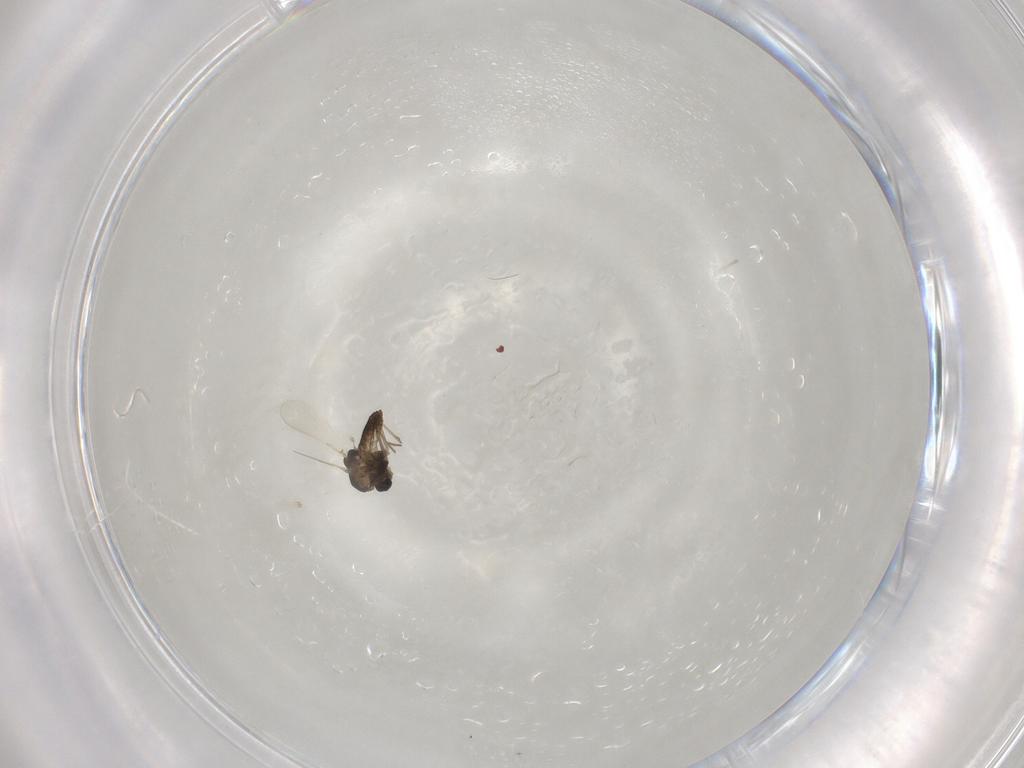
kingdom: Animalia
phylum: Arthropoda
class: Insecta
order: Diptera
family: Chironomidae
